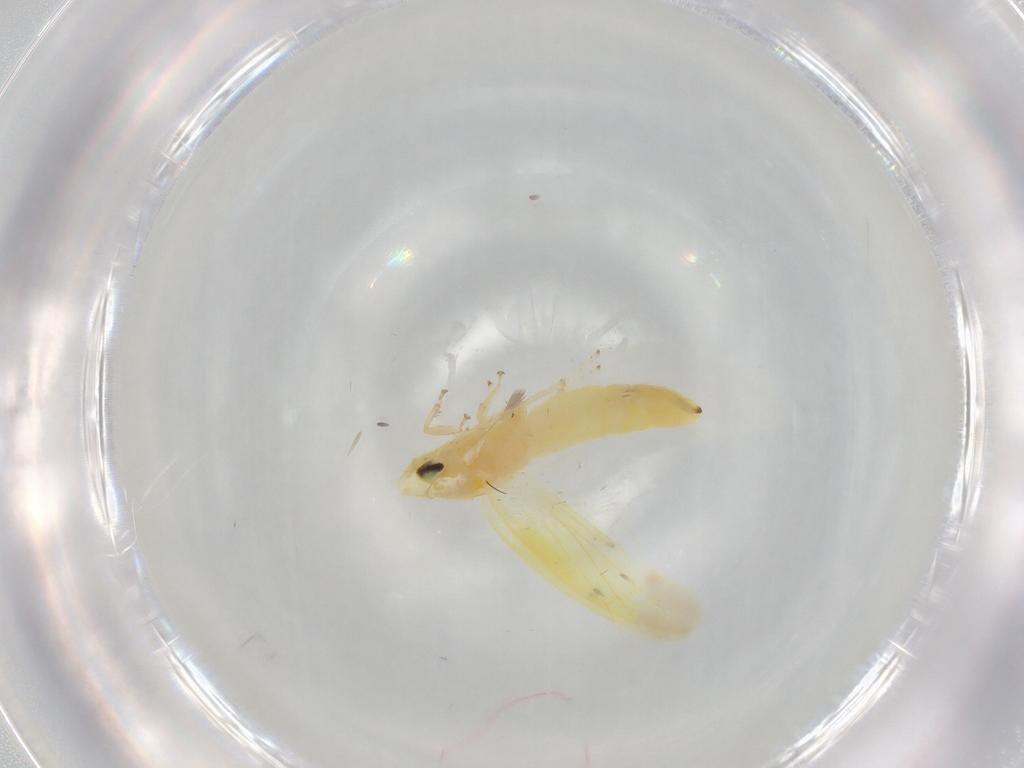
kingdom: Animalia
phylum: Arthropoda
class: Insecta
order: Hemiptera
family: Cicadellidae
